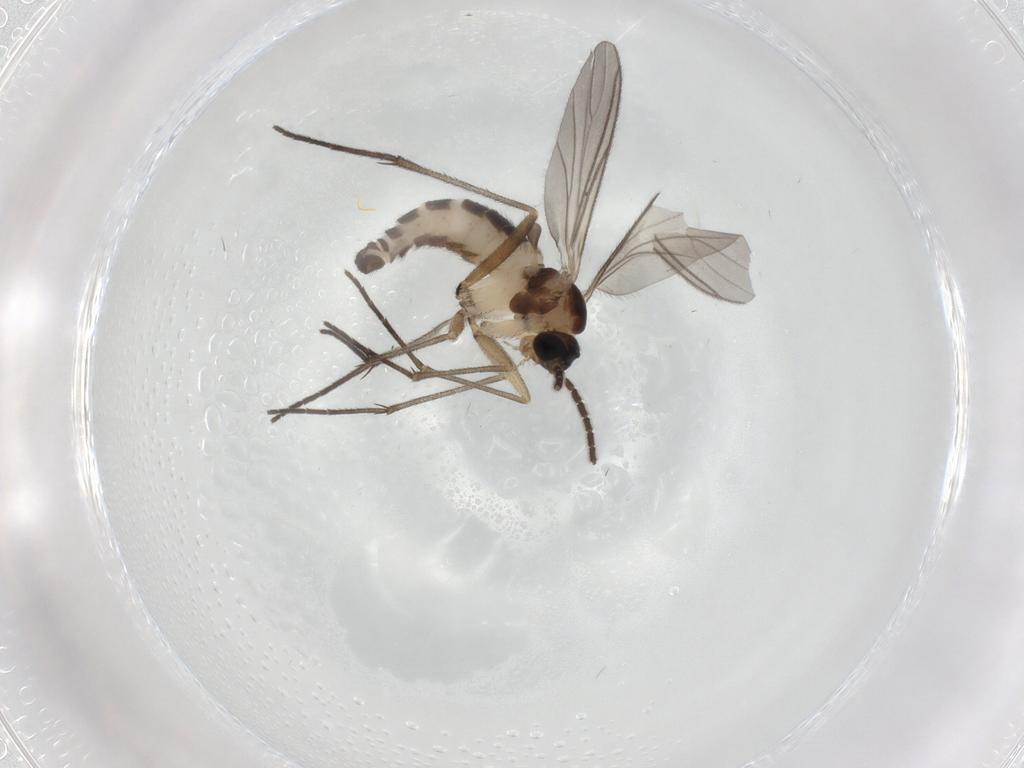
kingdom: Animalia
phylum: Arthropoda
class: Insecta
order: Diptera
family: Sciaridae
